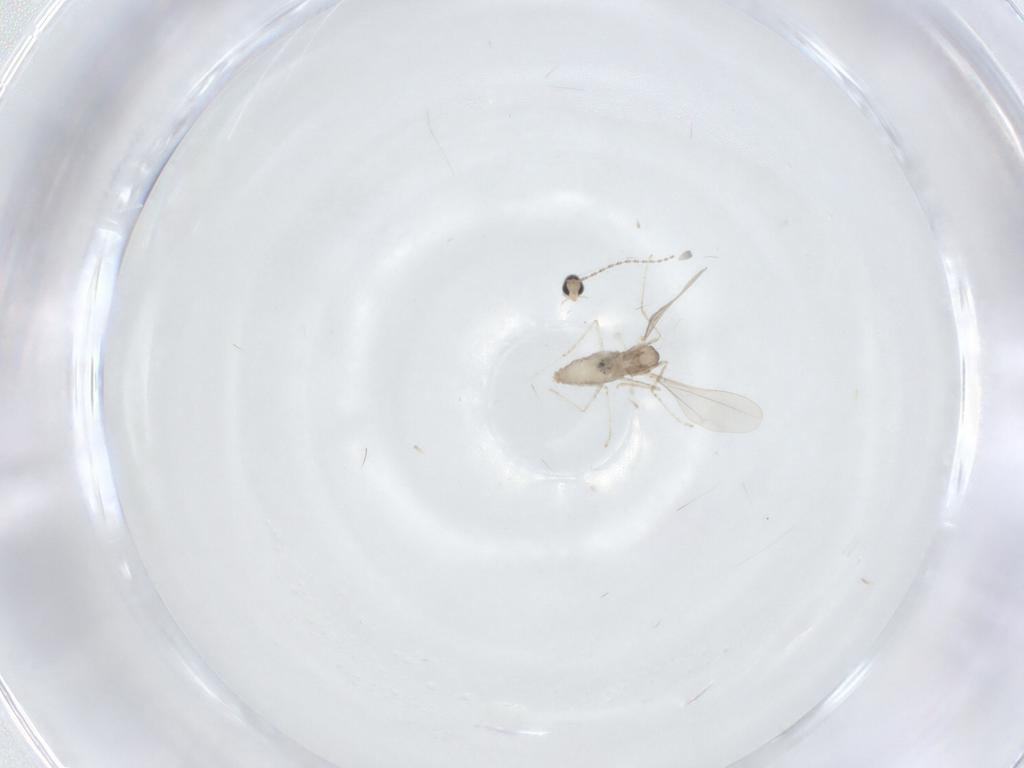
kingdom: Animalia
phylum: Arthropoda
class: Insecta
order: Diptera
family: Cecidomyiidae
